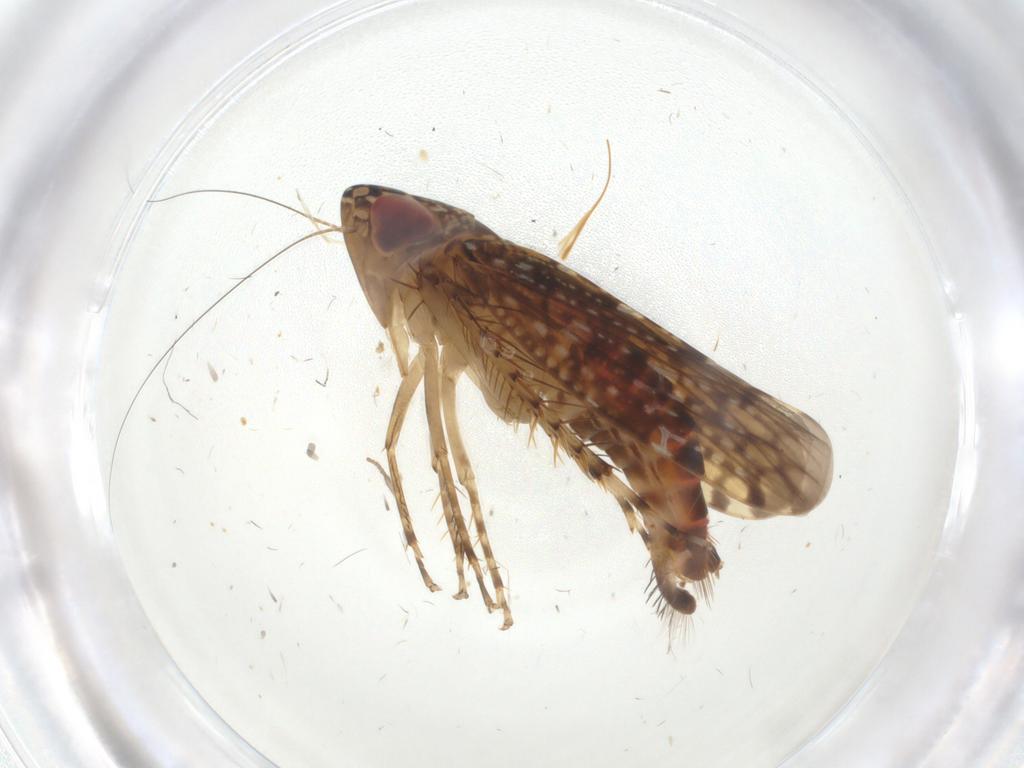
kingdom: Animalia
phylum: Arthropoda
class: Insecta
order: Hemiptera
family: Cicadellidae
